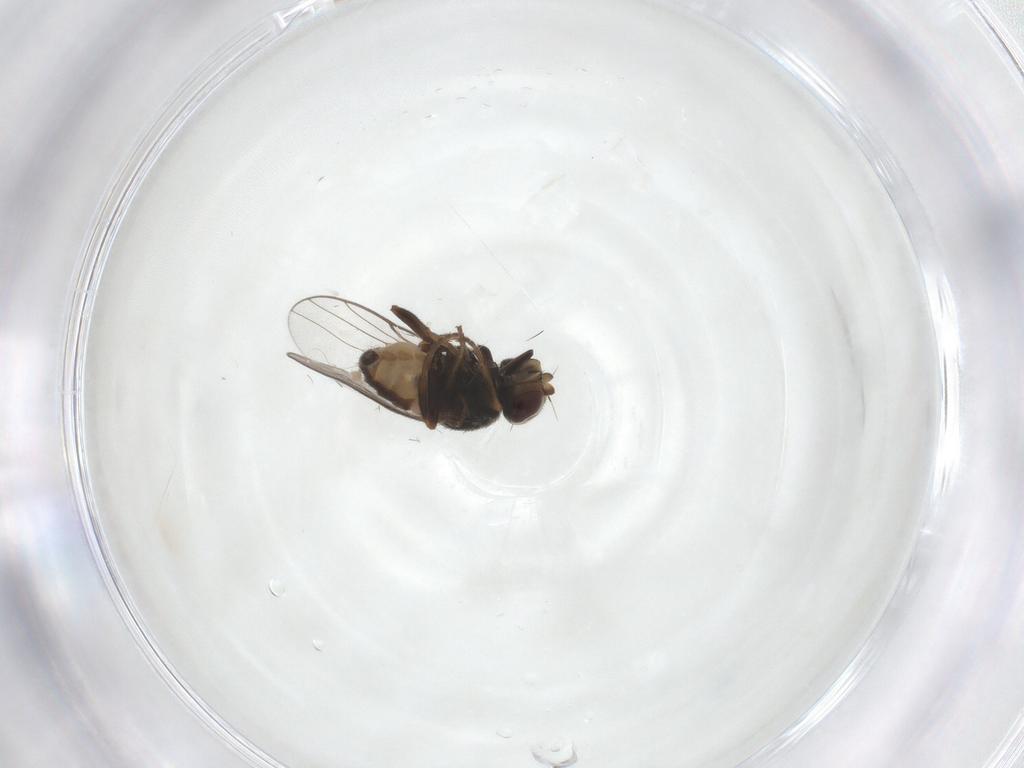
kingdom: Animalia
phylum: Arthropoda
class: Insecta
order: Diptera
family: Chloropidae
